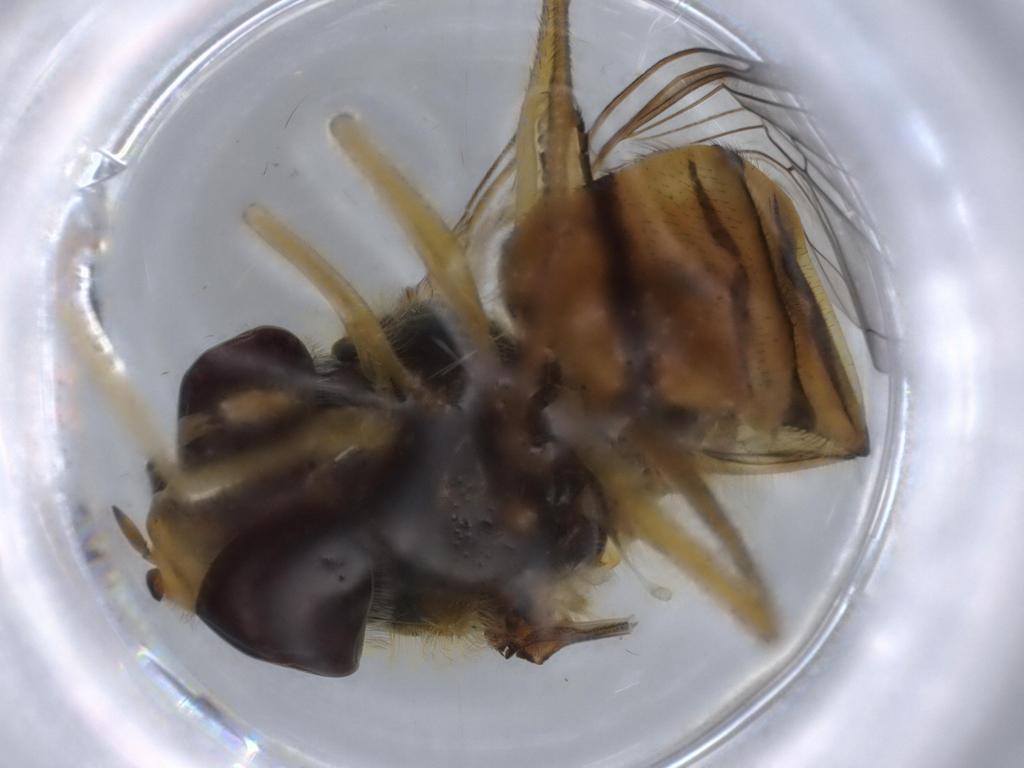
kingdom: Animalia
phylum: Arthropoda
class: Insecta
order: Diptera
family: Syrphidae
